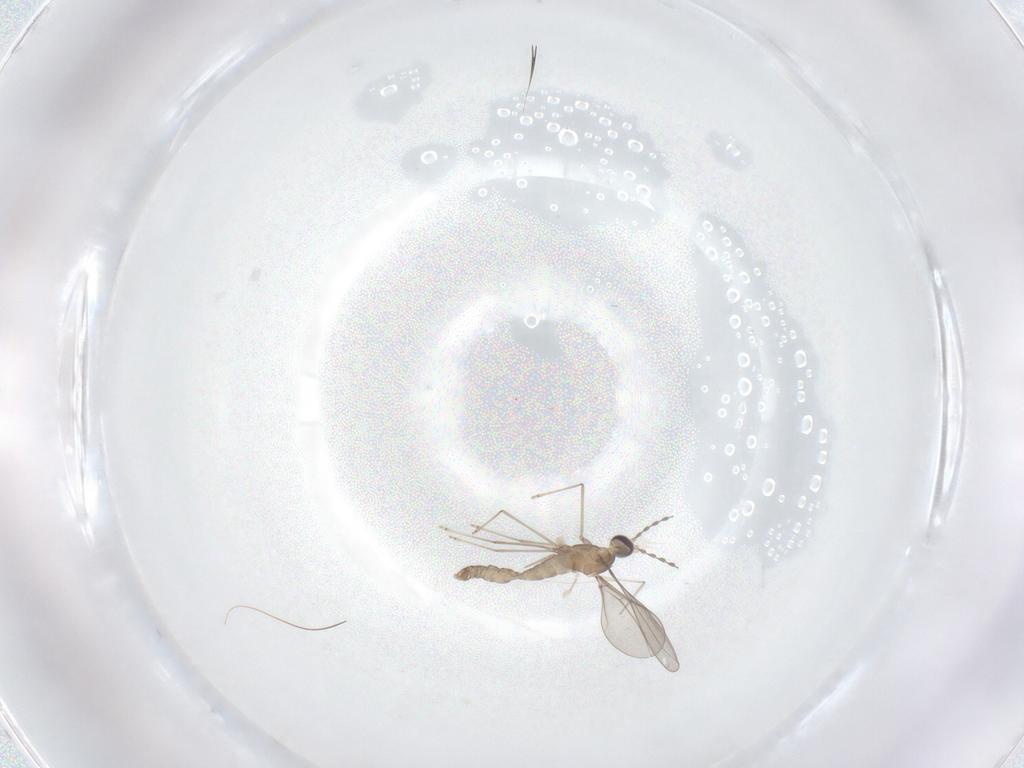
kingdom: Animalia
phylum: Arthropoda
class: Insecta
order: Diptera
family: Cecidomyiidae
